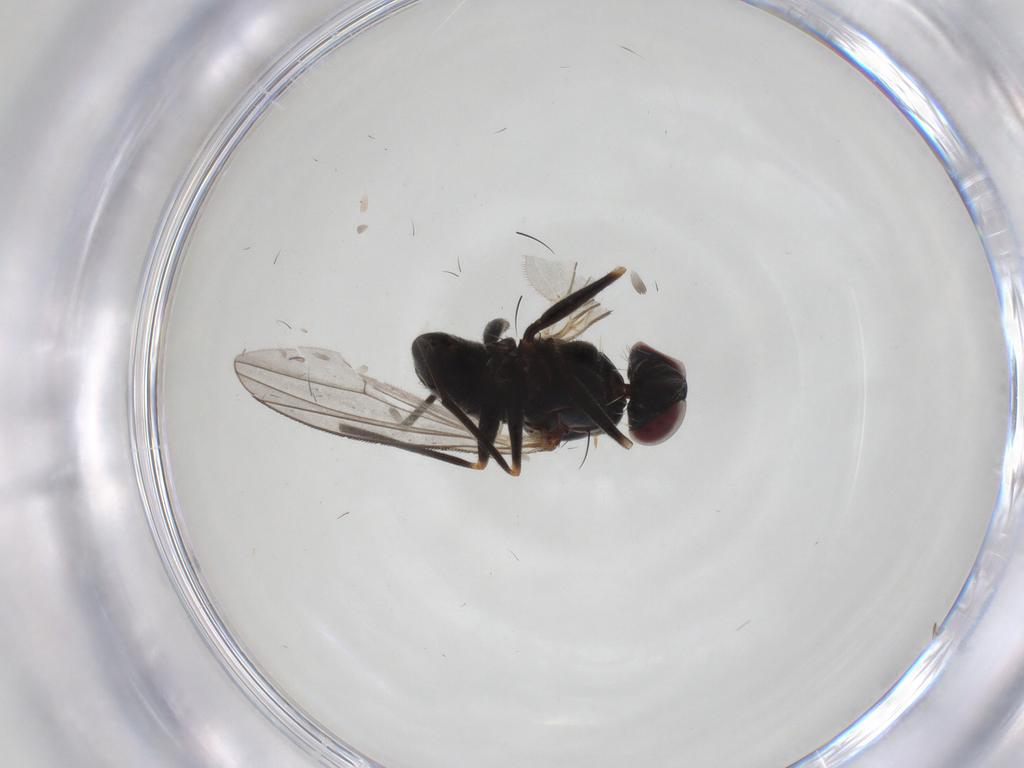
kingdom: Animalia
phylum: Arthropoda
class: Insecta
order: Diptera
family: Dolichopodidae
